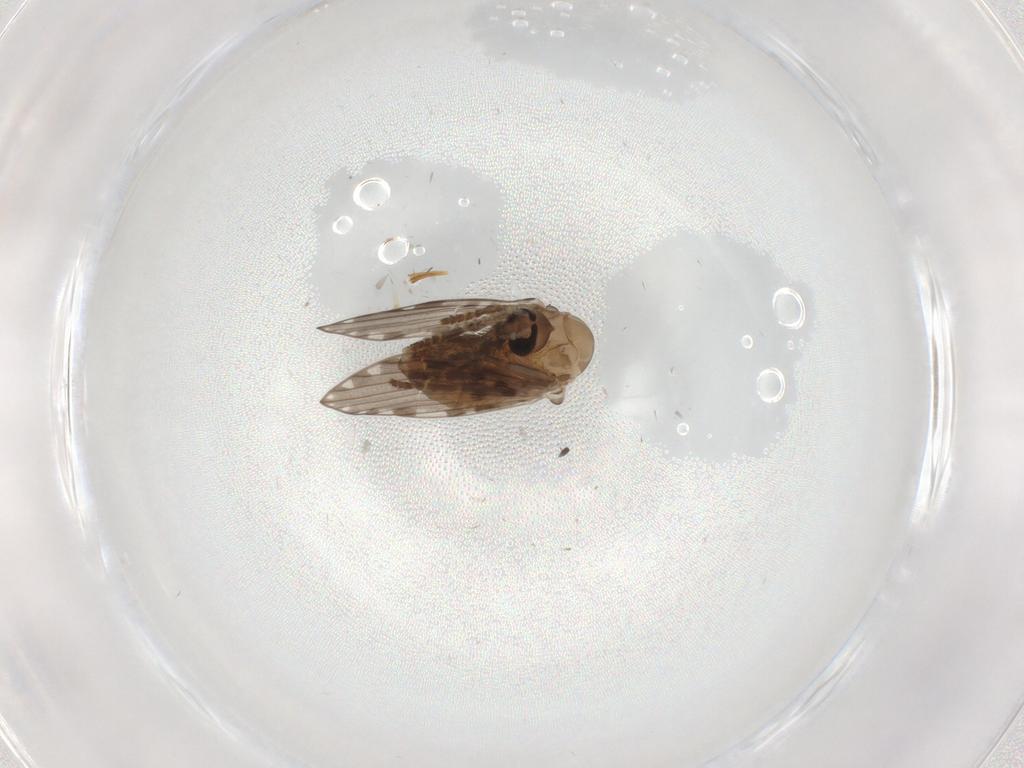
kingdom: Animalia
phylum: Arthropoda
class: Insecta
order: Diptera
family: Psychodidae
